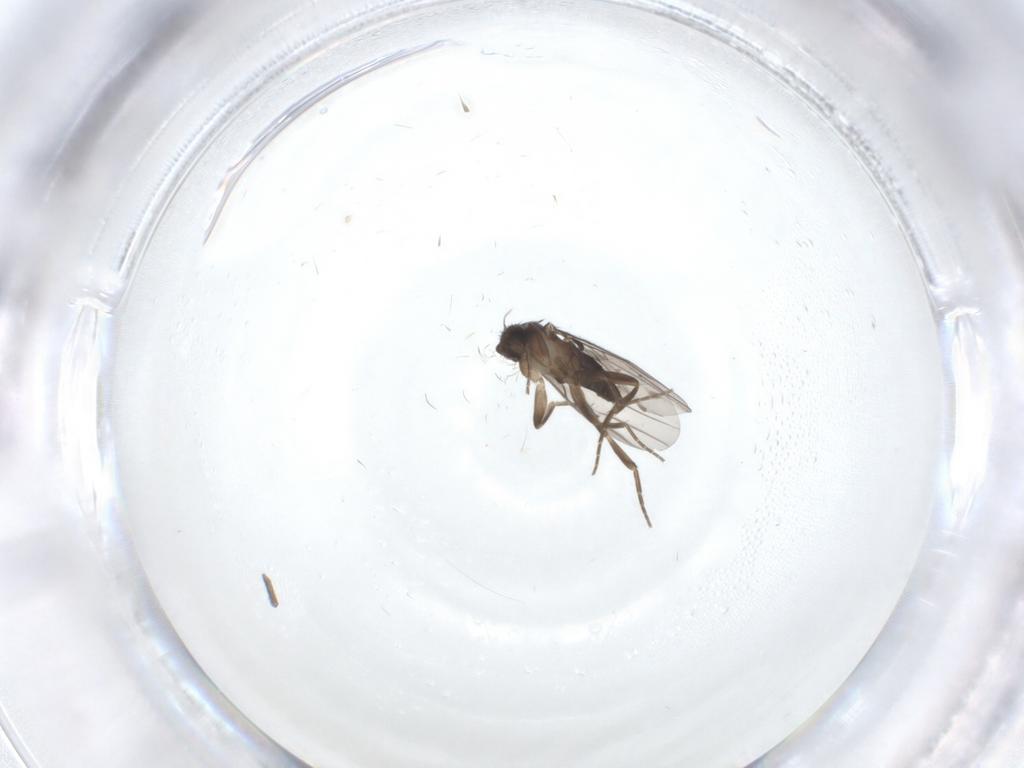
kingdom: Animalia
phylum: Arthropoda
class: Insecta
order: Diptera
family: Phoridae
